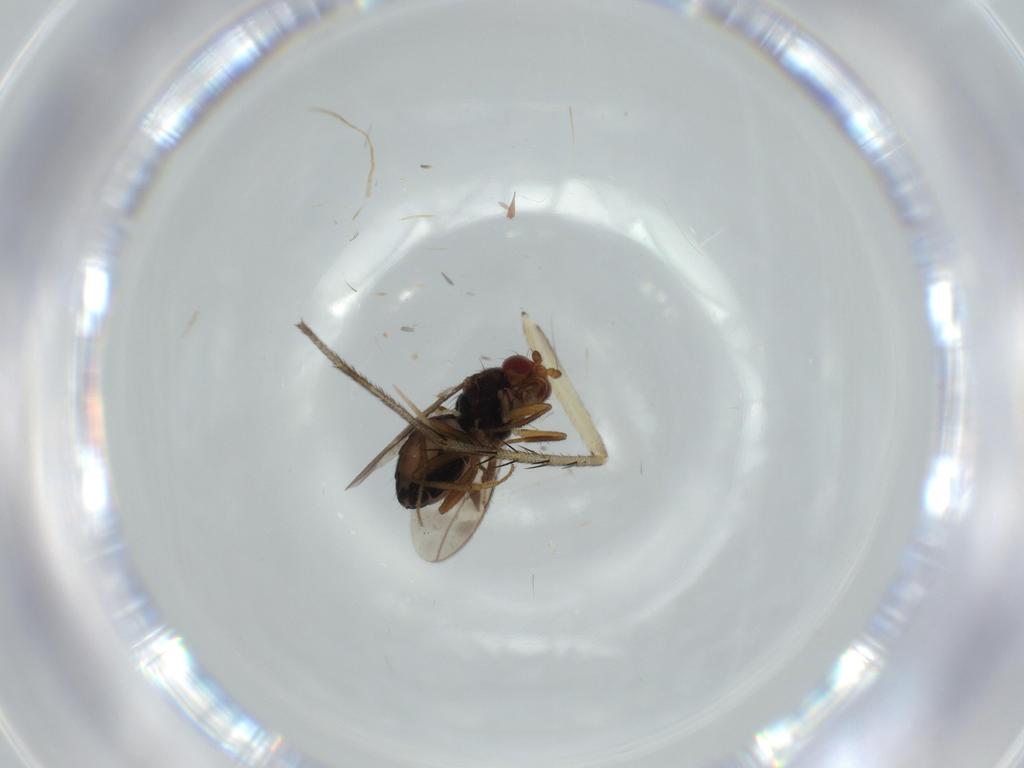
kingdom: Animalia
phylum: Arthropoda
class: Insecta
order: Diptera
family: Sphaeroceridae
